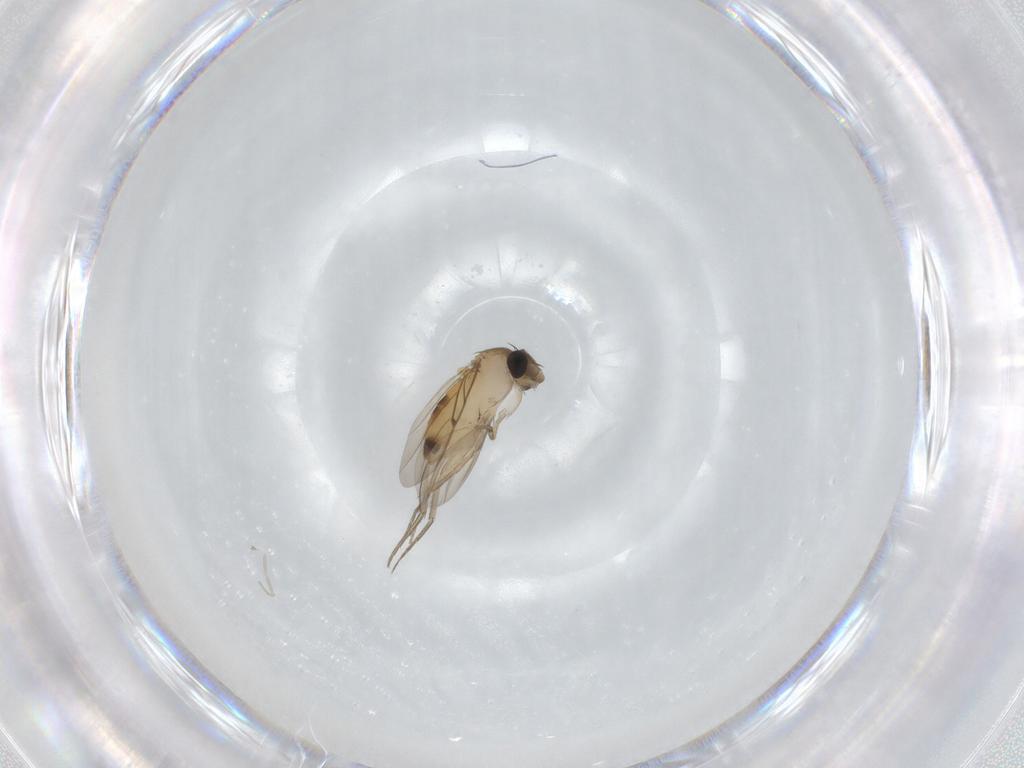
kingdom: Animalia
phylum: Arthropoda
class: Insecta
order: Diptera
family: Phoridae
